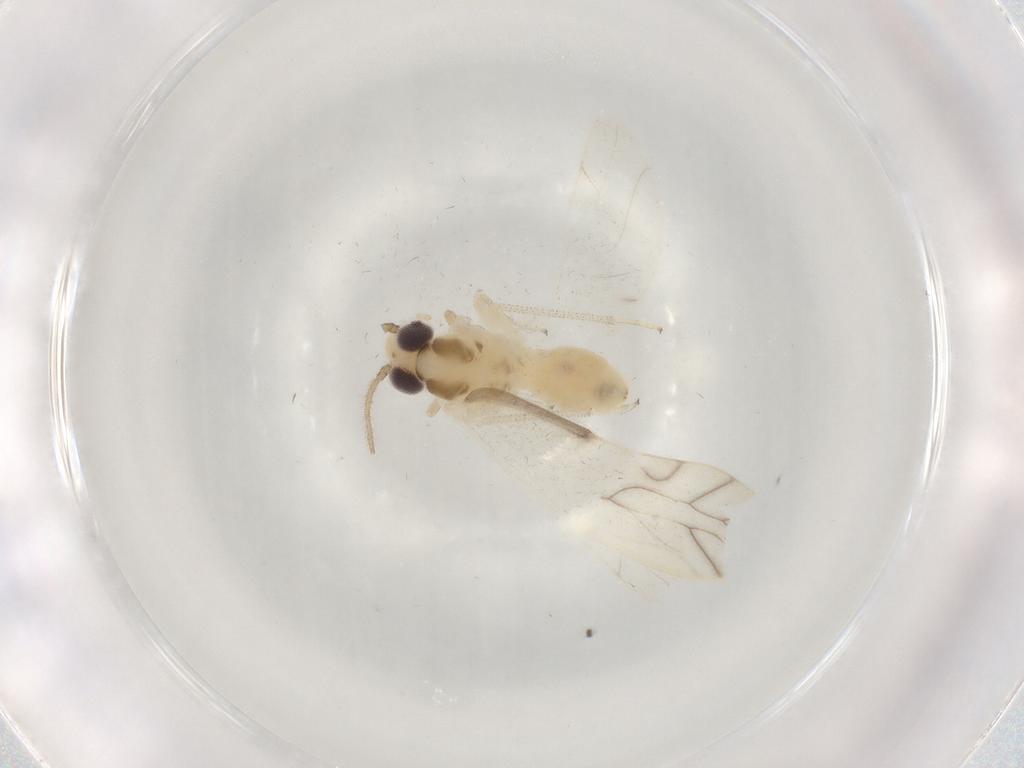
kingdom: Animalia
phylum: Arthropoda
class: Insecta
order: Psocodea
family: Caeciliusidae
